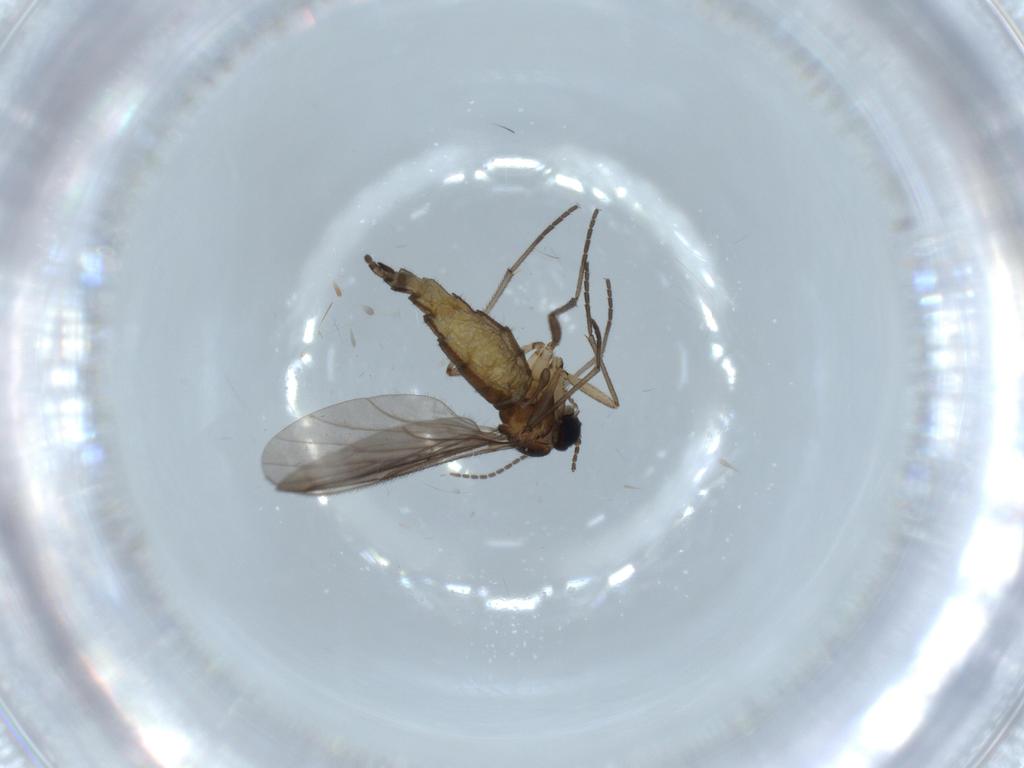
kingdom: Animalia
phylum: Arthropoda
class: Insecta
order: Diptera
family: Sciaridae
